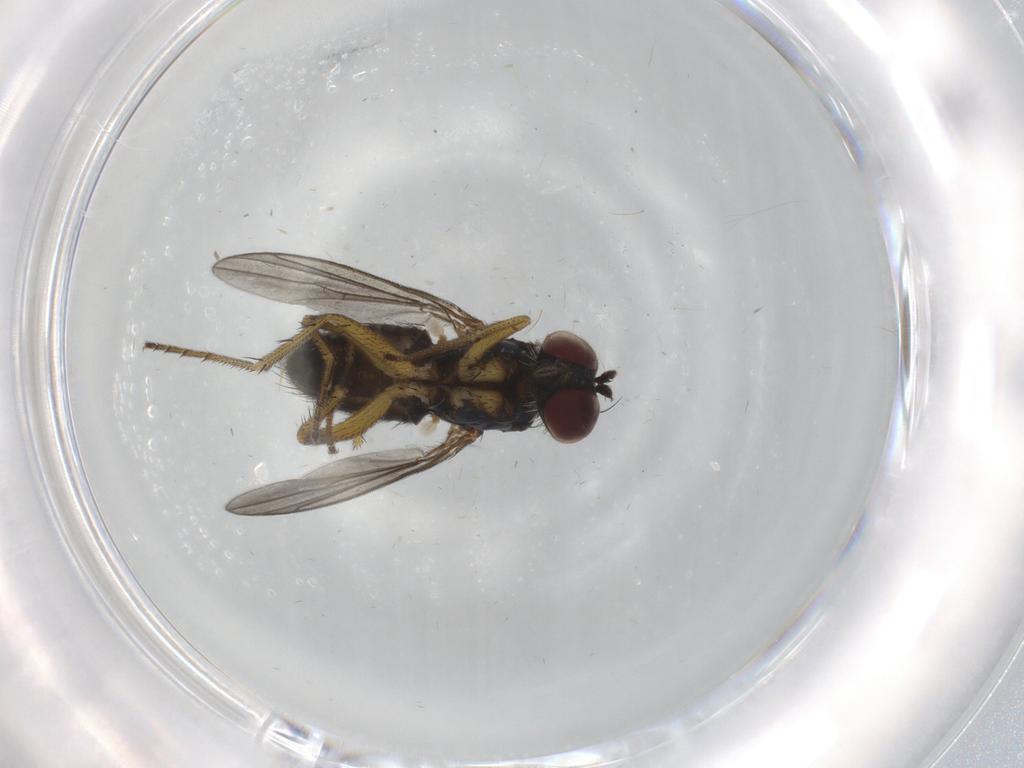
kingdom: Animalia
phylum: Arthropoda
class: Insecta
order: Diptera
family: Dolichopodidae
